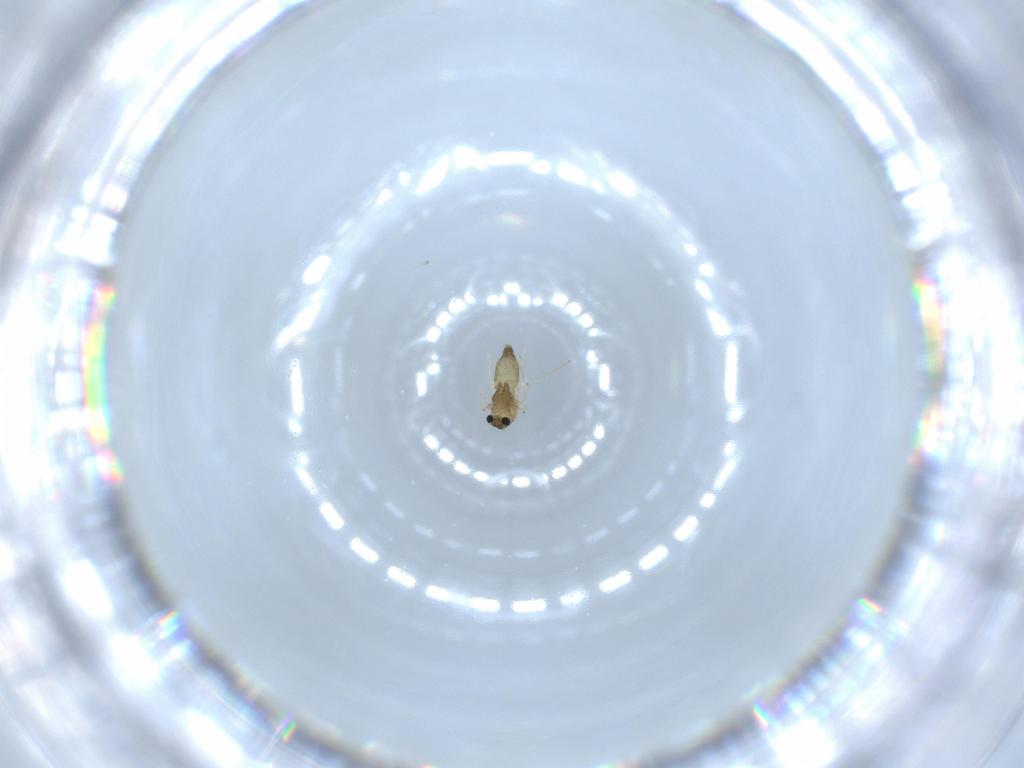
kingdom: Animalia
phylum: Arthropoda
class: Insecta
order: Diptera
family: Chironomidae
